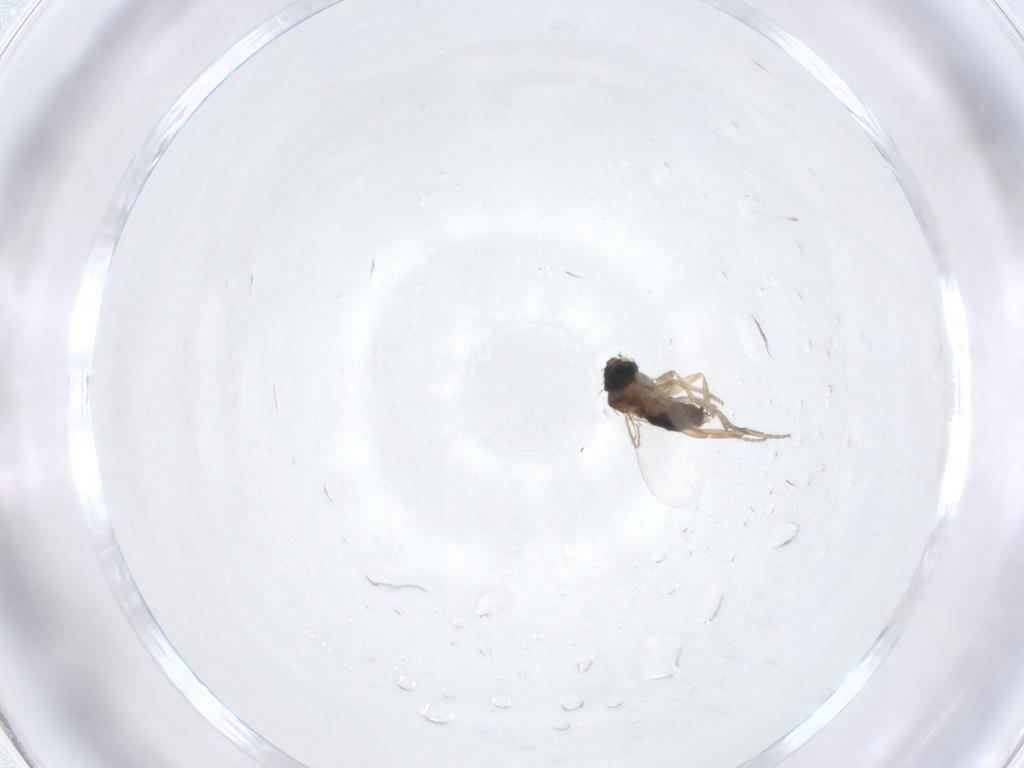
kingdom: Animalia
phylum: Arthropoda
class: Insecta
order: Diptera
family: Phoridae
